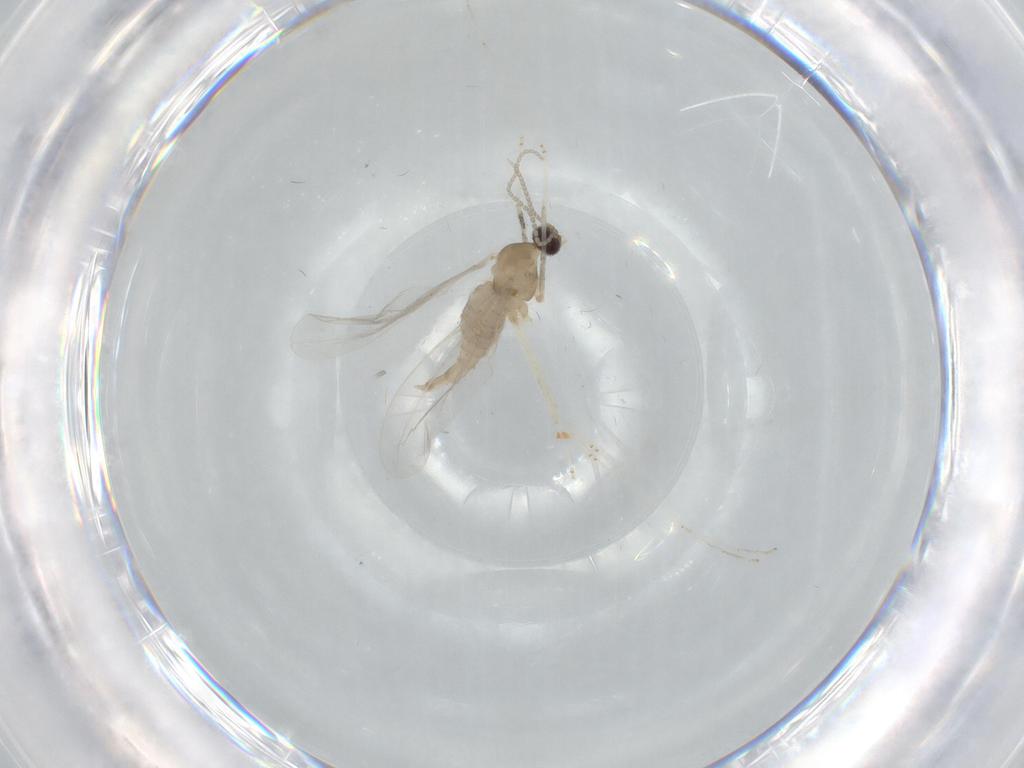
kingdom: Animalia
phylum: Arthropoda
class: Insecta
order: Diptera
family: Cecidomyiidae
